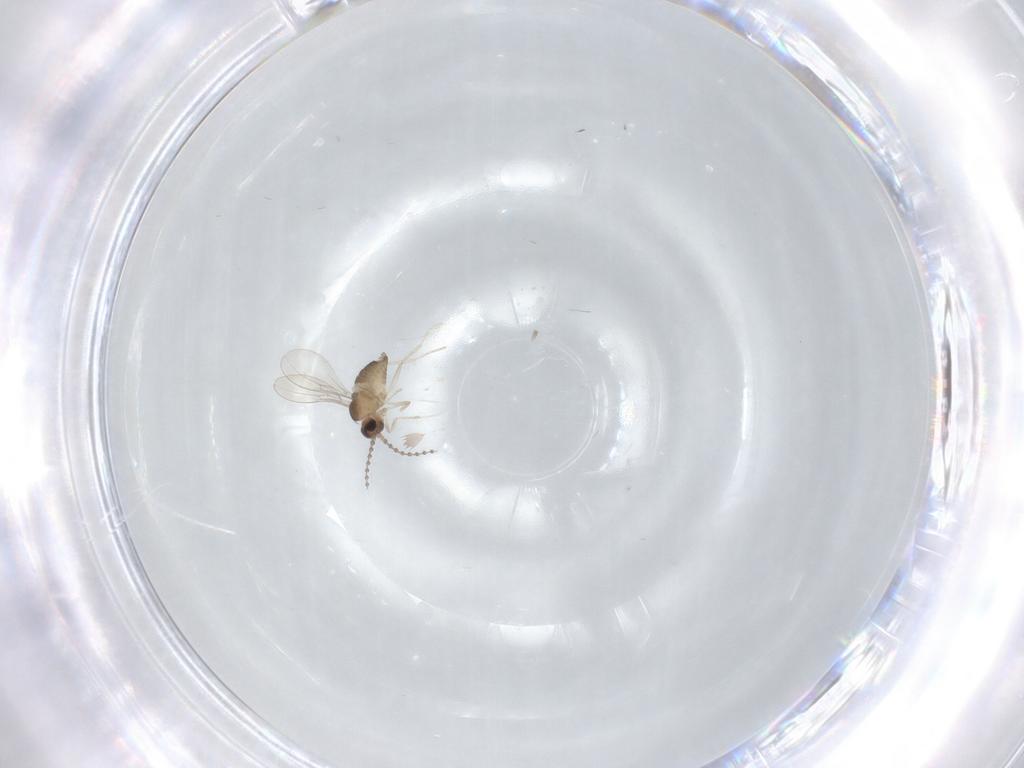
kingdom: Animalia
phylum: Arthropoda
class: Insecta
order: Diptera
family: Cecidomyiidae
